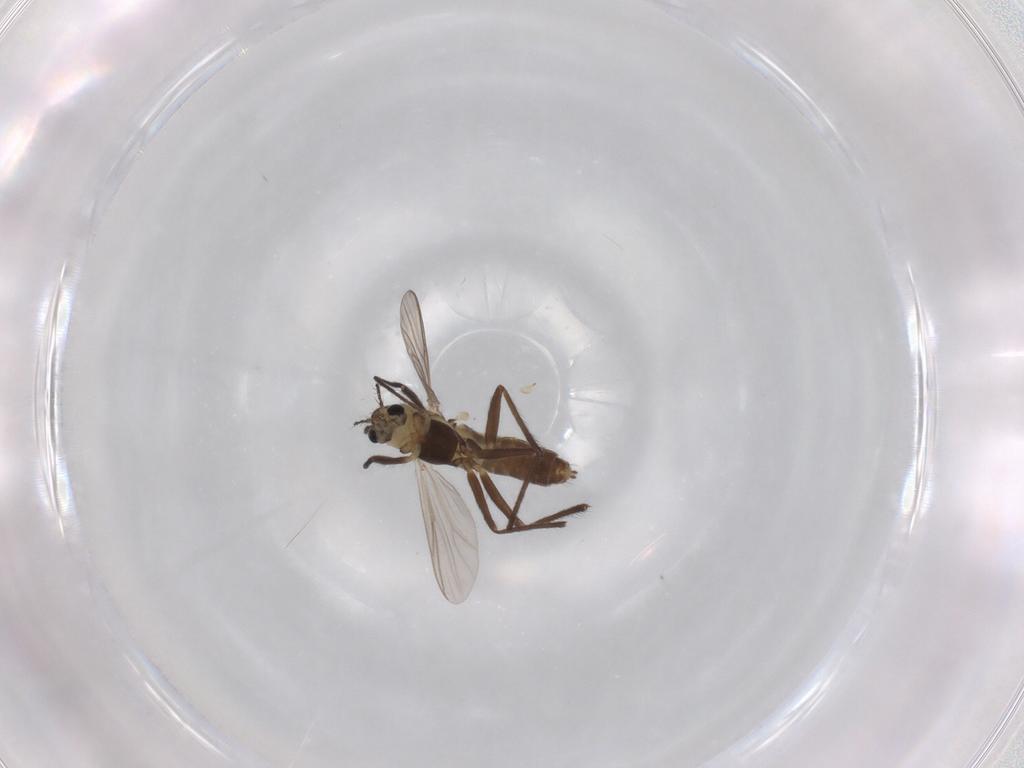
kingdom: Animalia
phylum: Arthropoda
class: Insecta
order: Diptera
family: Chironomidae
